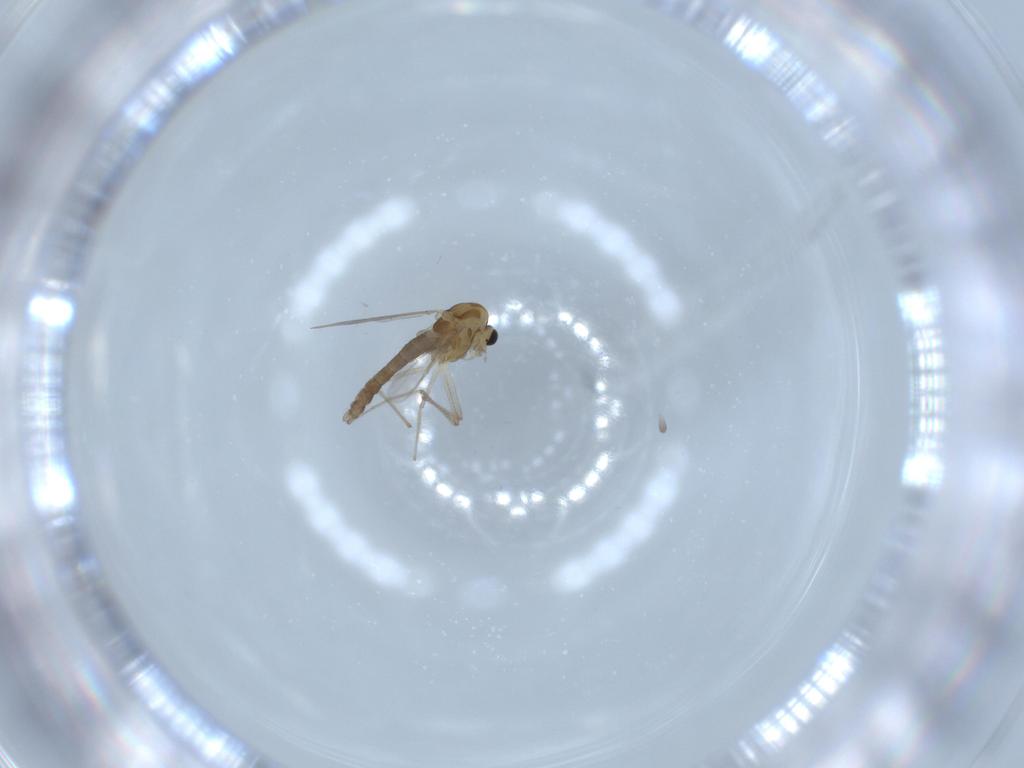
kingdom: Animalia
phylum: Arthropoda
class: Insecta
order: Diptera
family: Chironomidae
